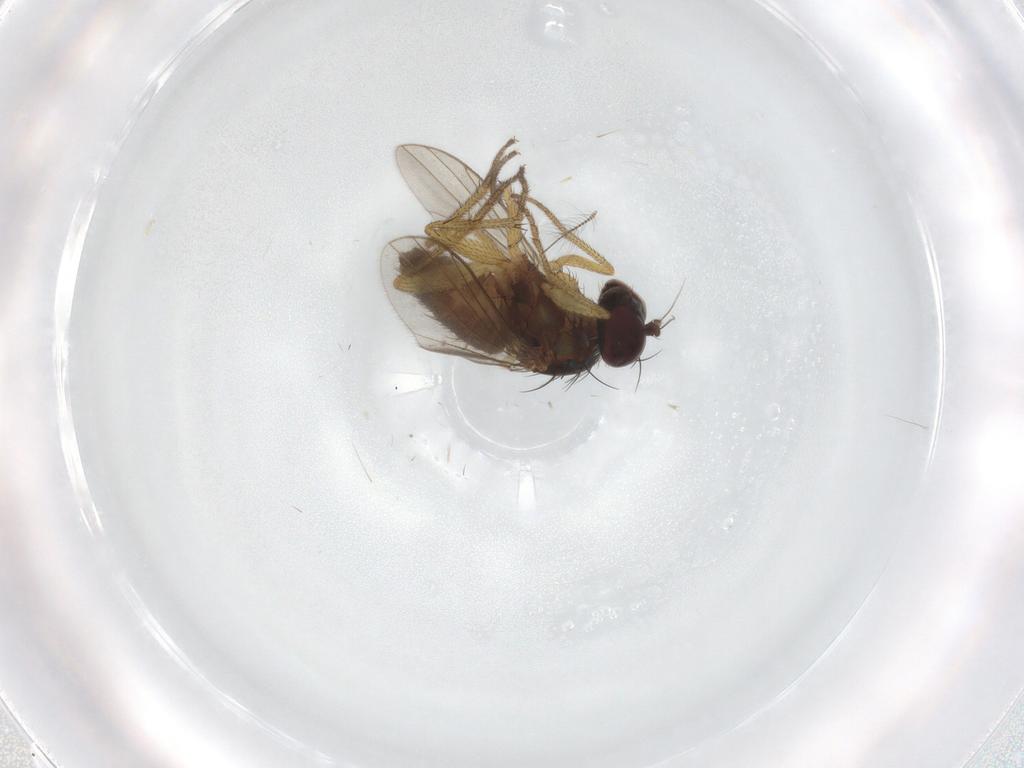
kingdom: Animalia
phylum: Arthropoda
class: Insecta
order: Diptera
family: Chironomidae
